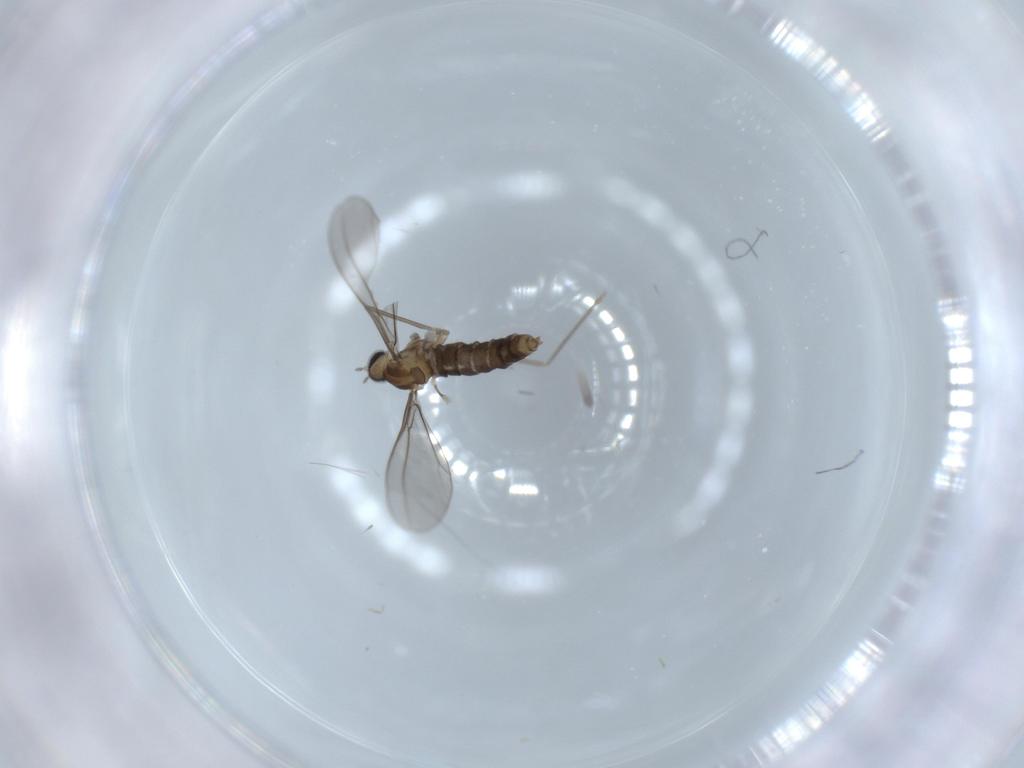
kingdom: Animalia
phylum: Arthropoda
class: Insecta
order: Diptera
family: Cecidomyiidae
